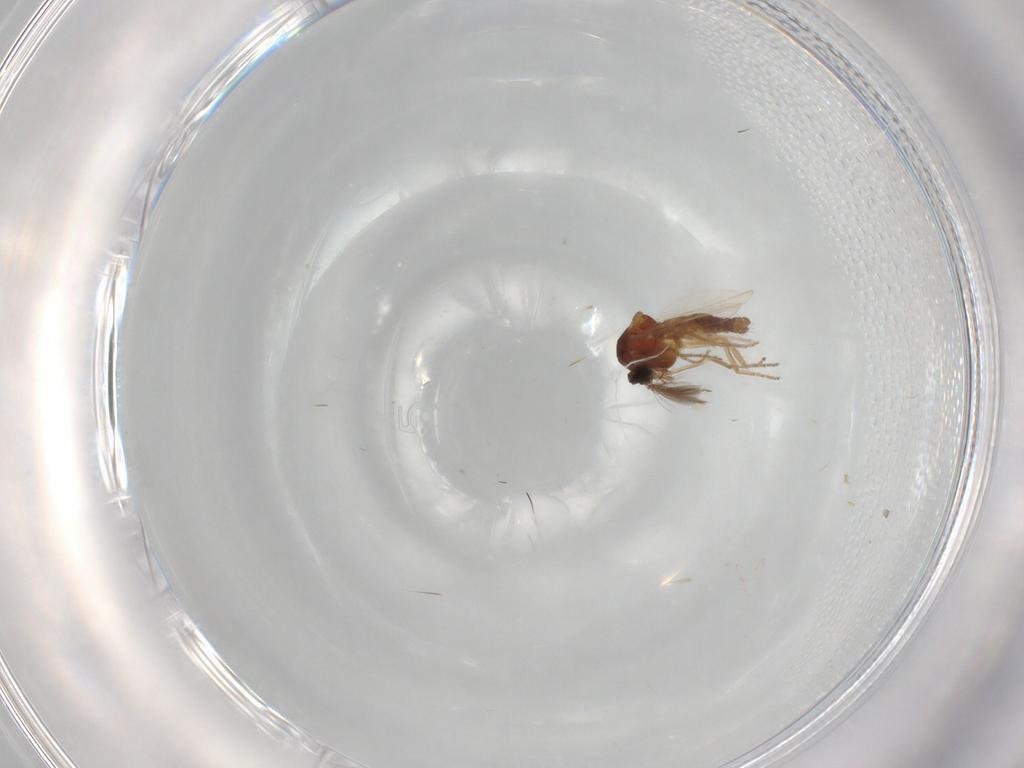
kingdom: Animalia
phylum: Arthropoda
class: Insecta
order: Diptera
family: Ceratopogonidae
